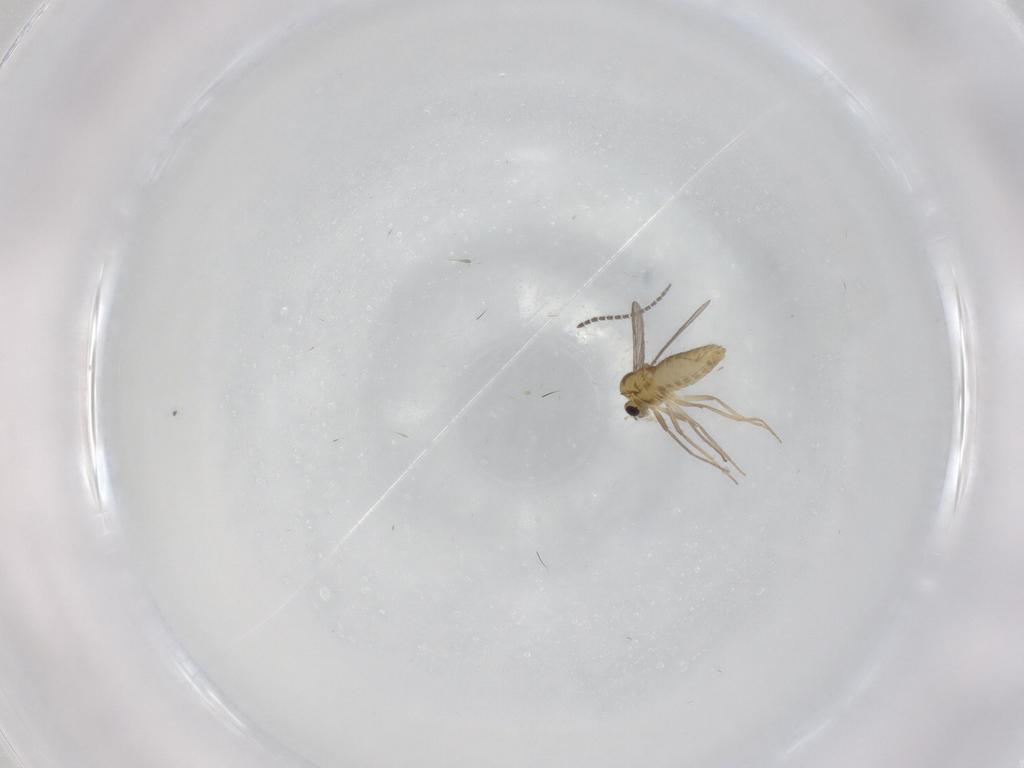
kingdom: Animalia
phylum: Arthropoda
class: Insecta
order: Diptera
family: Chironomidae
